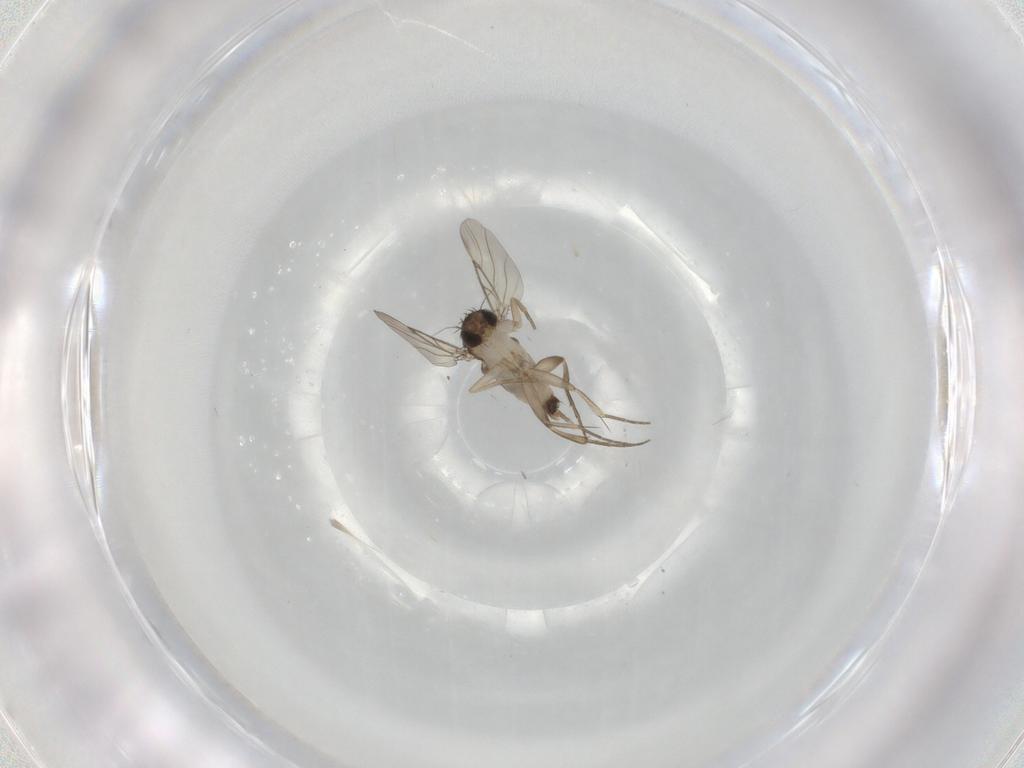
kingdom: Animalia
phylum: Arthropoda
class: Insecta
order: Diptera
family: Phoridae
